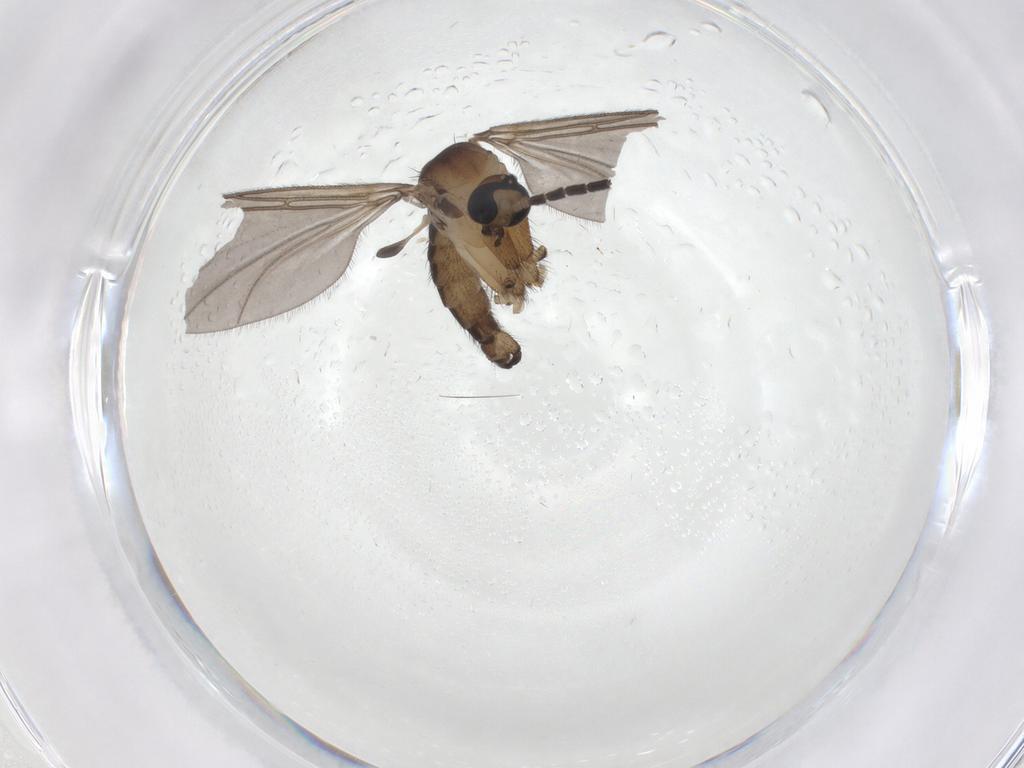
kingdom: Animalia
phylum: Arthropoda
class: Insecta
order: Diptera
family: Sciaridae
